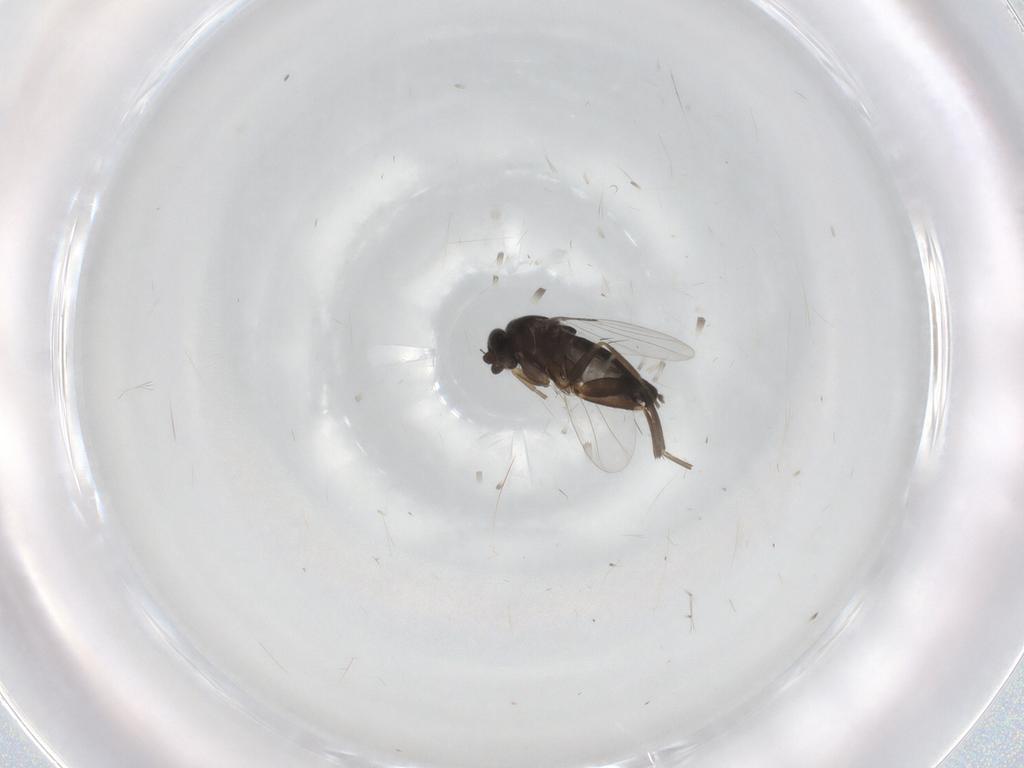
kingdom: Animalia
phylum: Arthropoda
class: Insecta
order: Diptera
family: Phoridae
